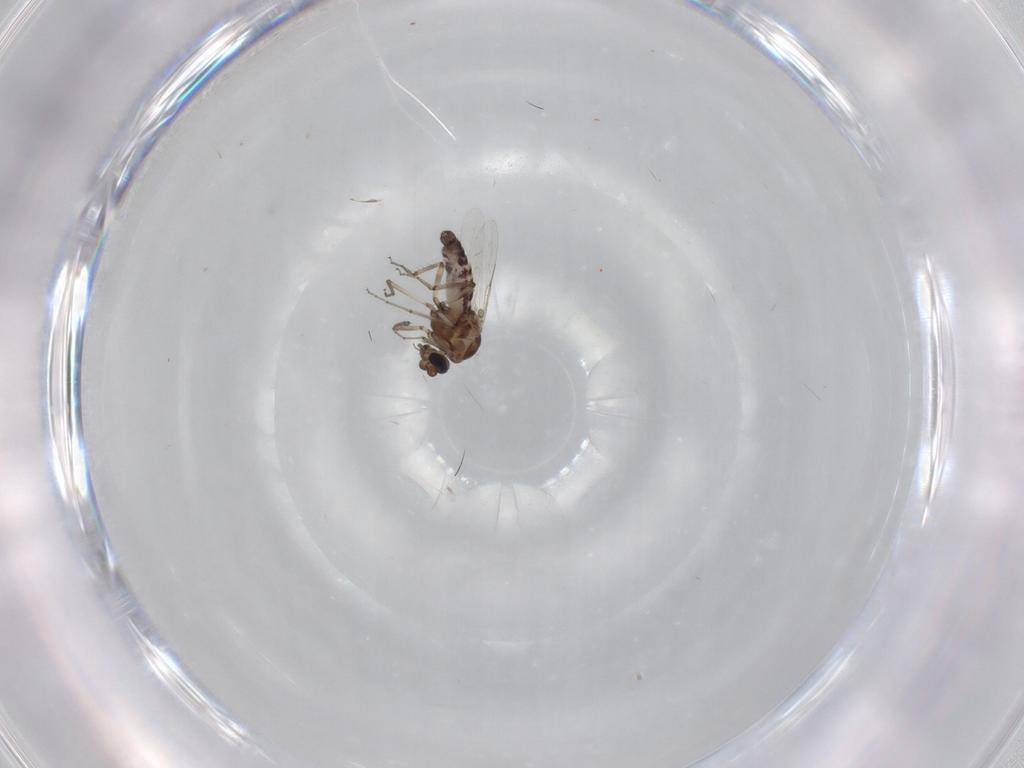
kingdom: Animalia
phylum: Arthropoda
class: Insecta
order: Diptera
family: Ceratopogonidae
